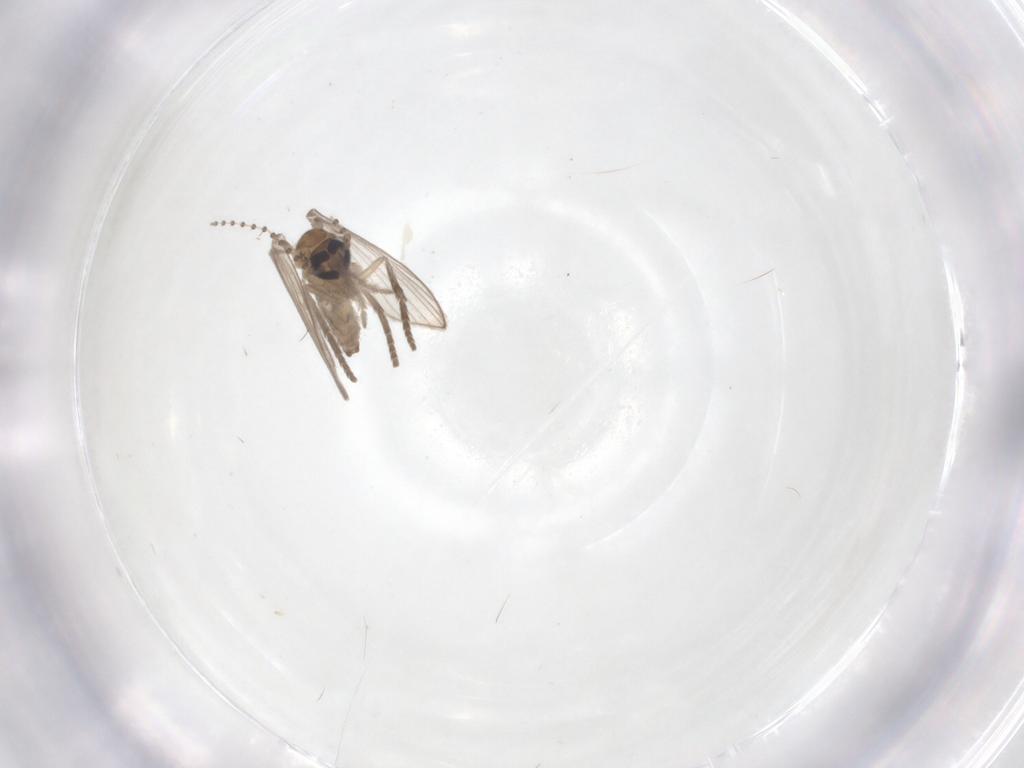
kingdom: Animalia
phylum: Arthropoda
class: Insecta
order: Diptera
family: Psychodidae
